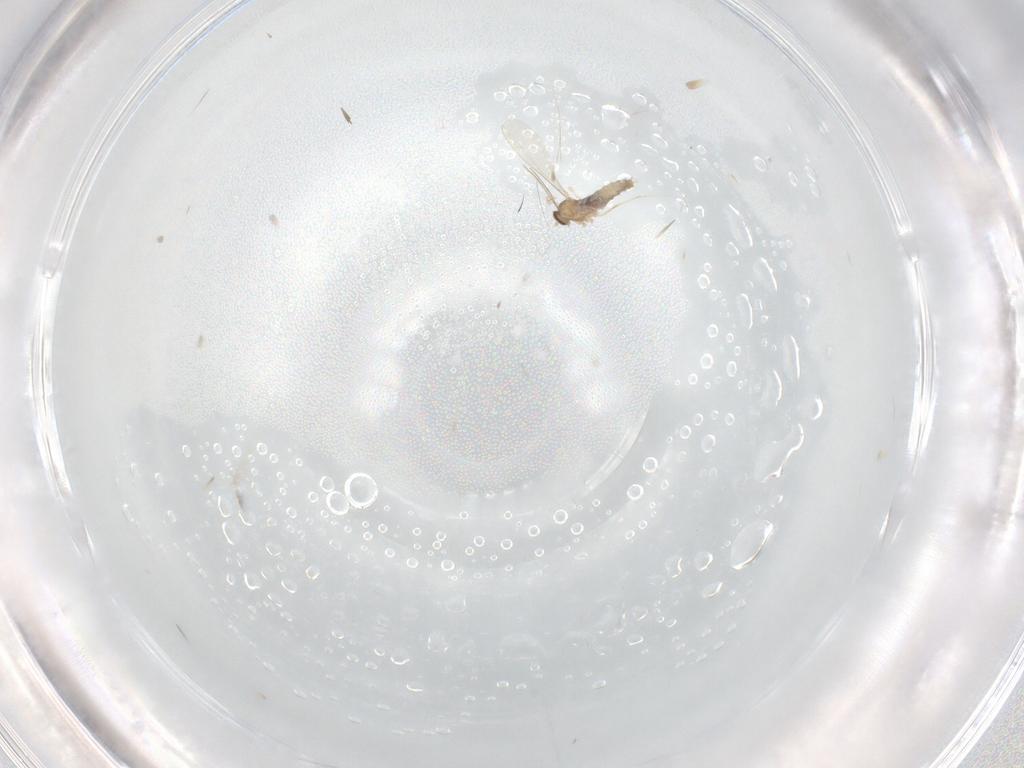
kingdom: Animalia
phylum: Arthropoda
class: Insecta
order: Diptera
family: Cecidomyiidae
